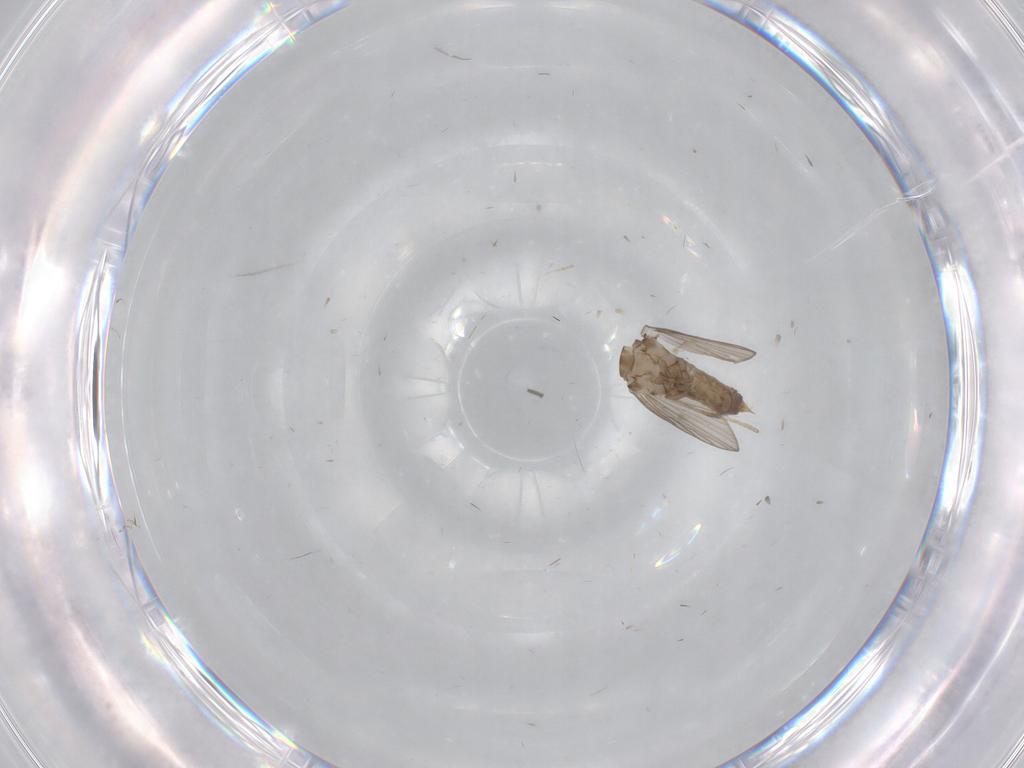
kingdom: Animalia
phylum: Arthropoda
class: Insecta
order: Diptera
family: Psychodidae
